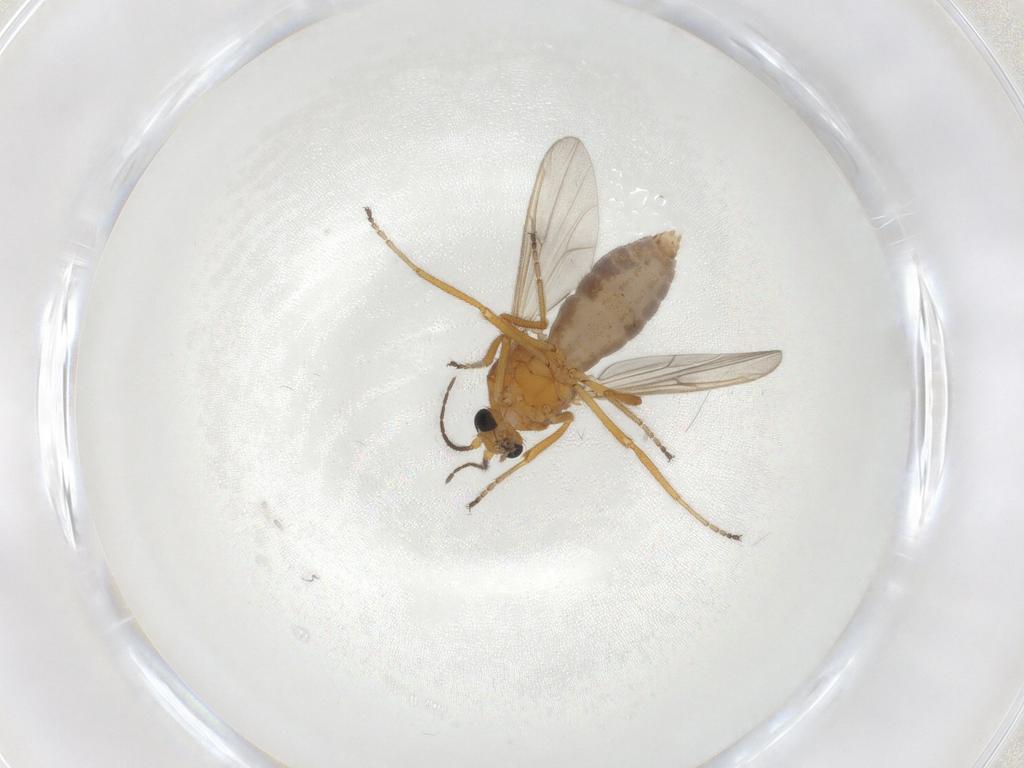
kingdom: Animalia
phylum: Arthropoda
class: Insecta
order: Diptera
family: Ceratopogonidae
